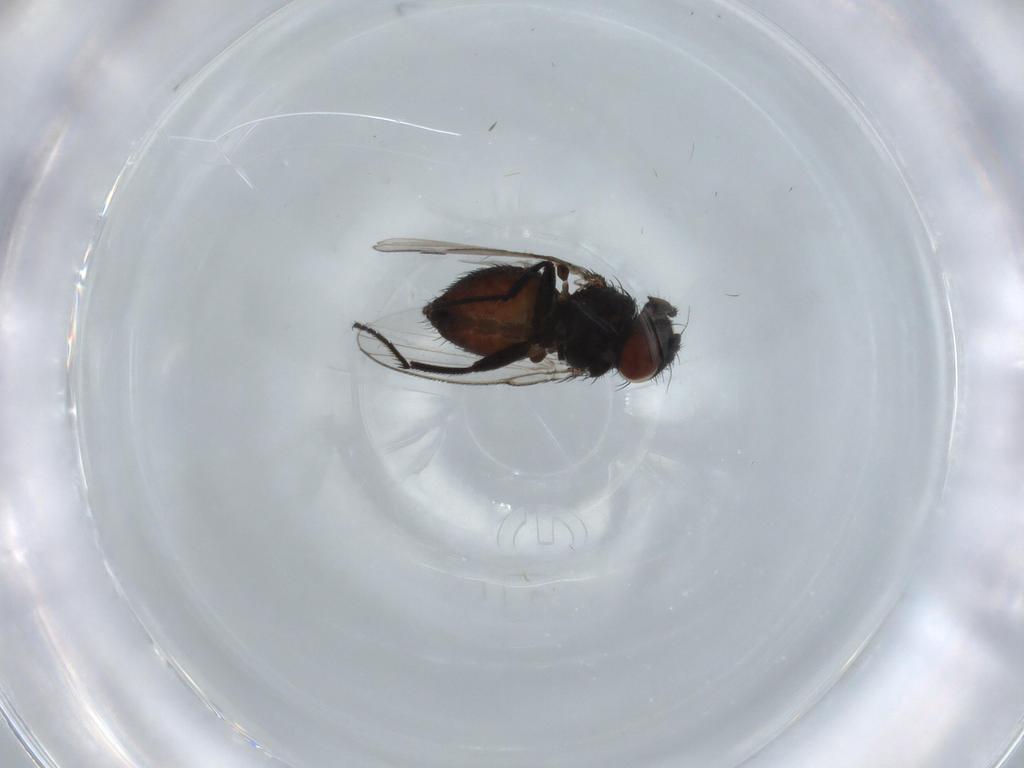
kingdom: Animalia
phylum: Arthropoda
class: Insecta
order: Diptera
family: Milichiidae
